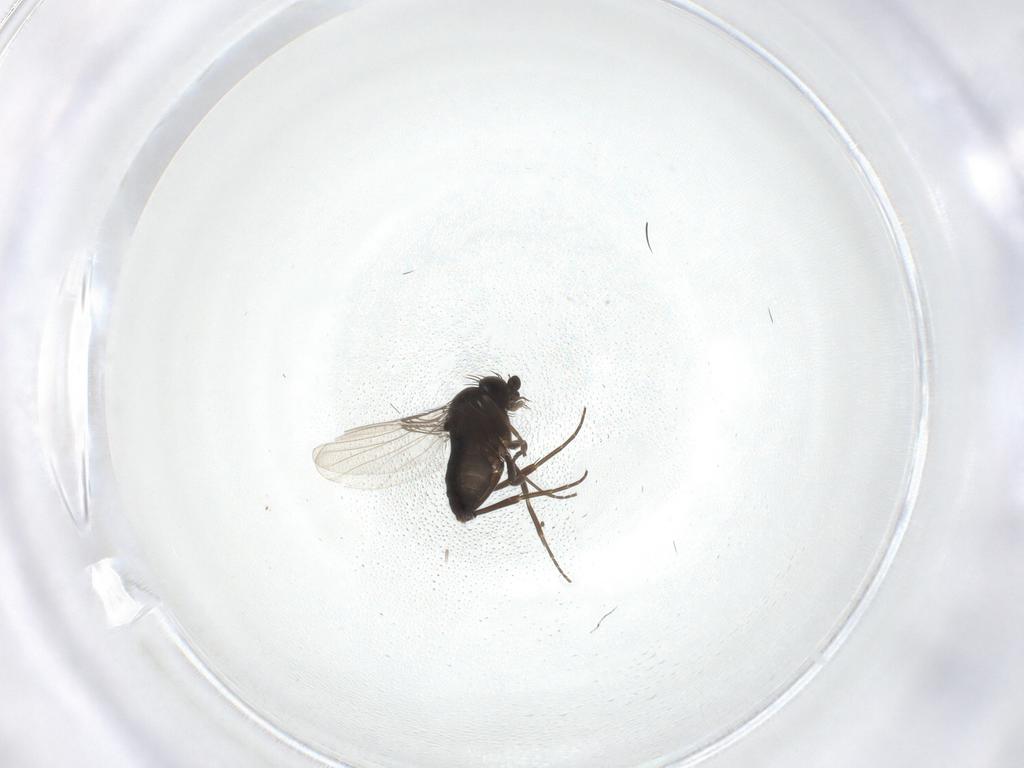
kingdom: Animalia
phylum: Arthropoda
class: Insecta
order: Diptera
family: Phoridae
